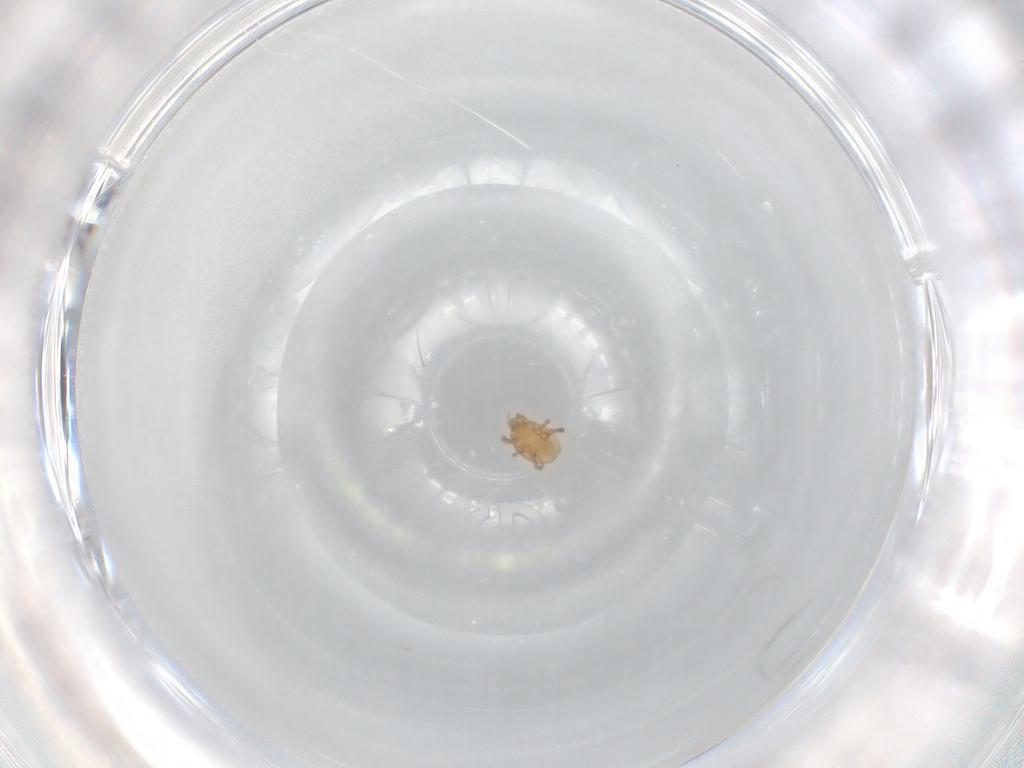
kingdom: Animalia
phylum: Arthropoda
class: Arachnida
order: Mesostigmata
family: Macrochelidae
